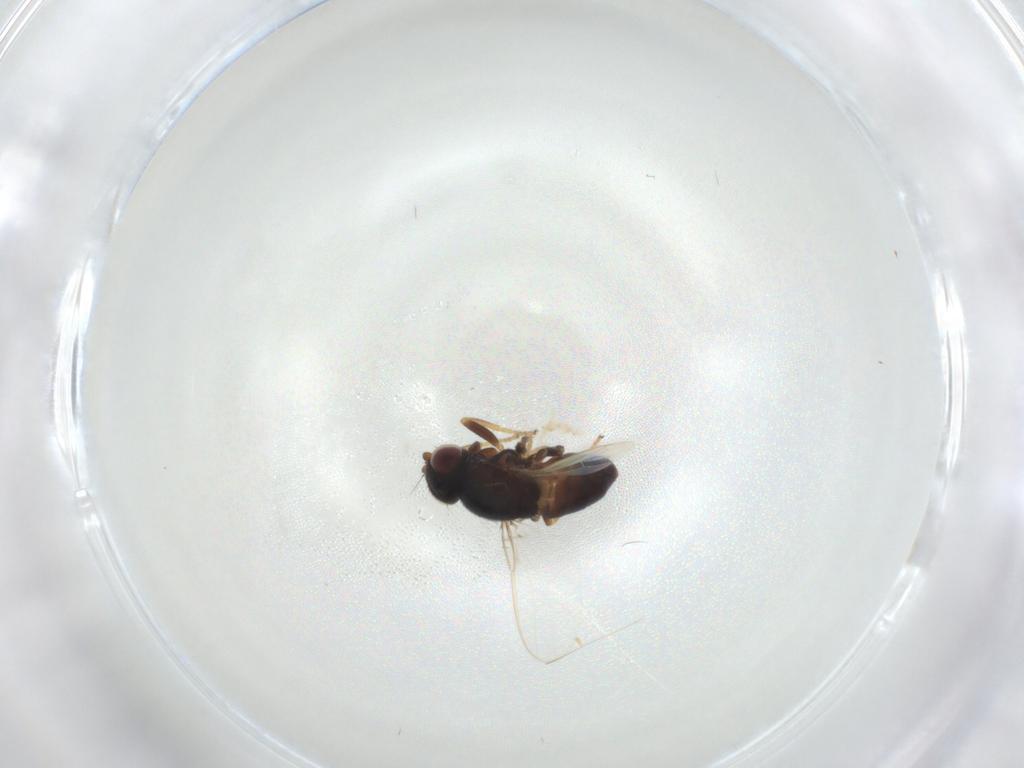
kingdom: Animalia
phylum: Arthropoda
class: Insecta
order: Diptera
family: Chloropidae
